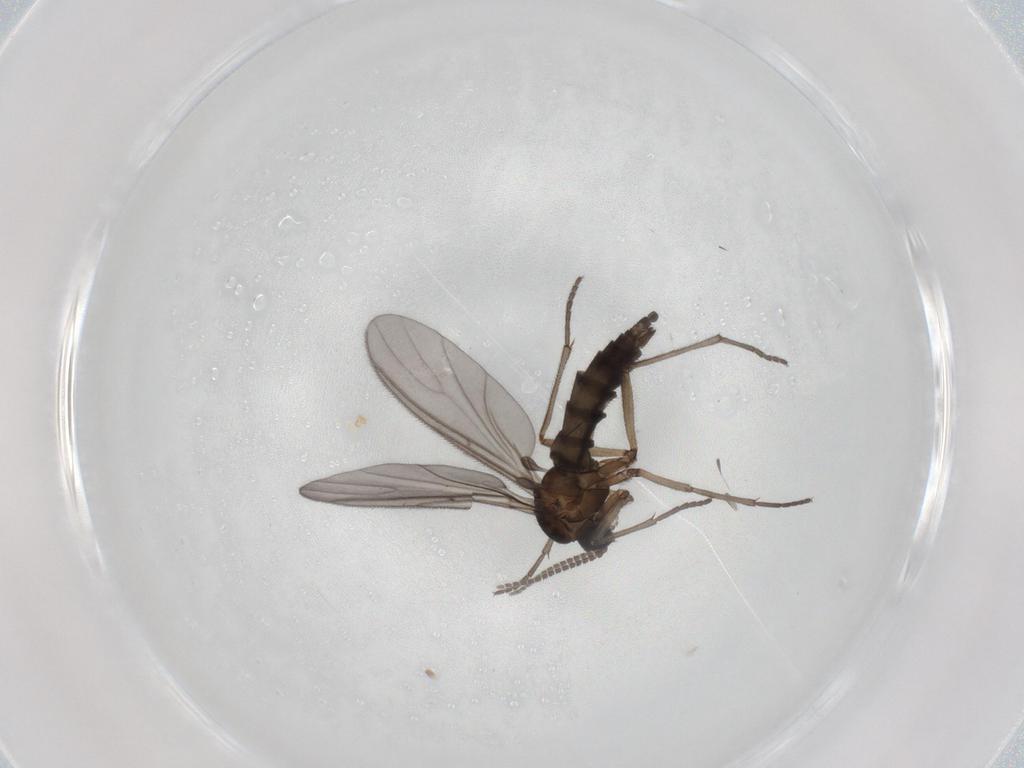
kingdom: Animalia
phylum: Arthropoda
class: Insecta
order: Diptera
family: Sciaridae
